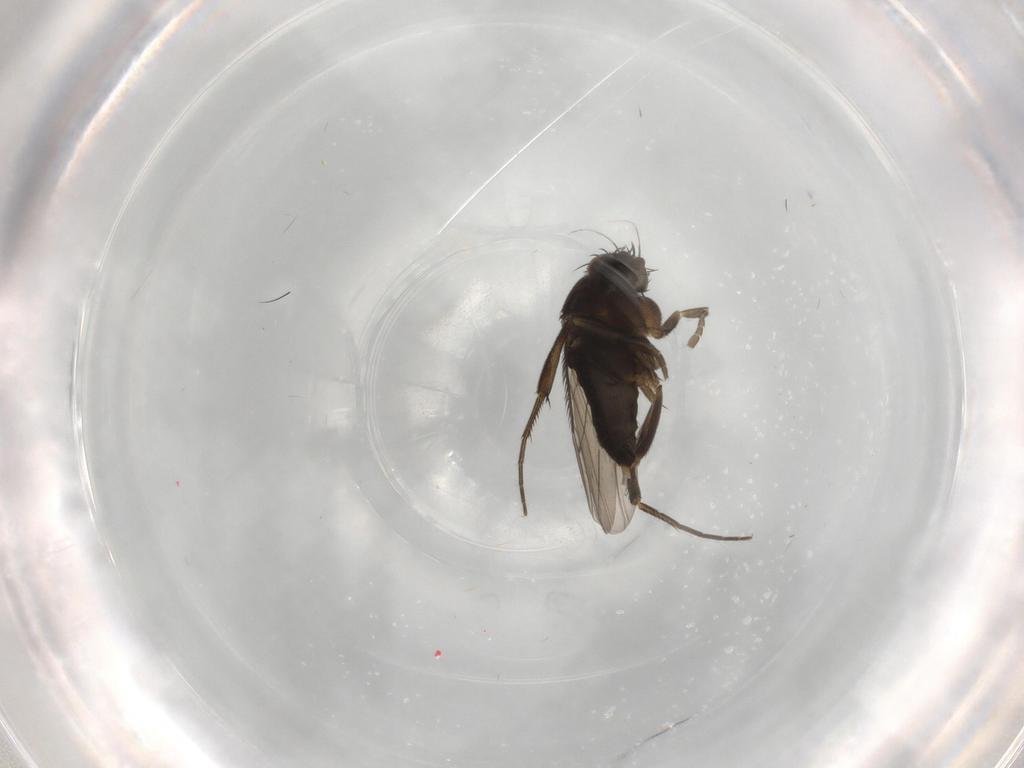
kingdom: Animalia
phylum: Arthropoda
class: Insecta
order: Diptera
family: Phoridae
